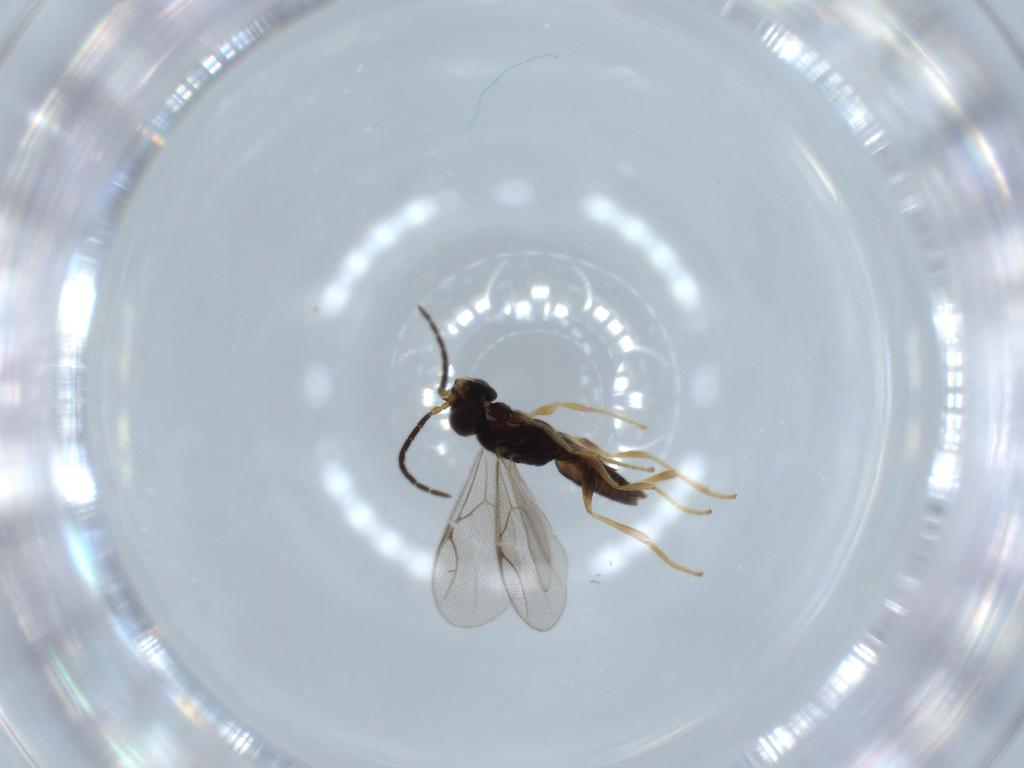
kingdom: Animalia
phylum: Arthropoda
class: Insecta
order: Hymenoptera
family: Dryinidae
